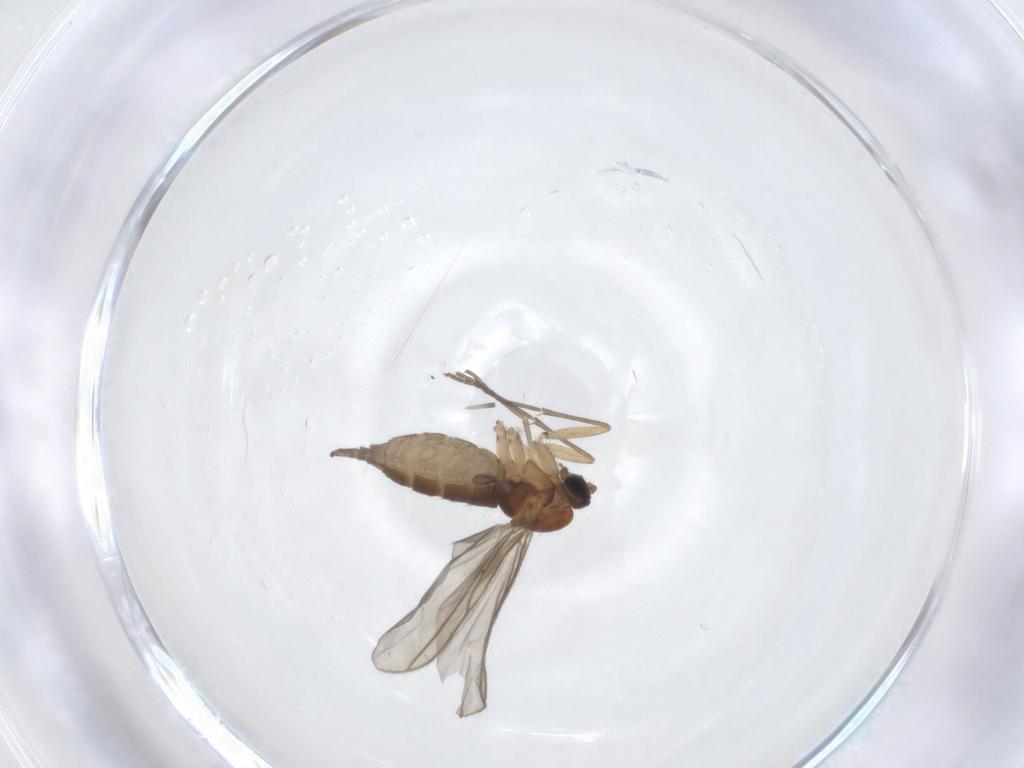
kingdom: Animalia
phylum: Arthropoda
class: Insecta
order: Diptera
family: Sciaridae
